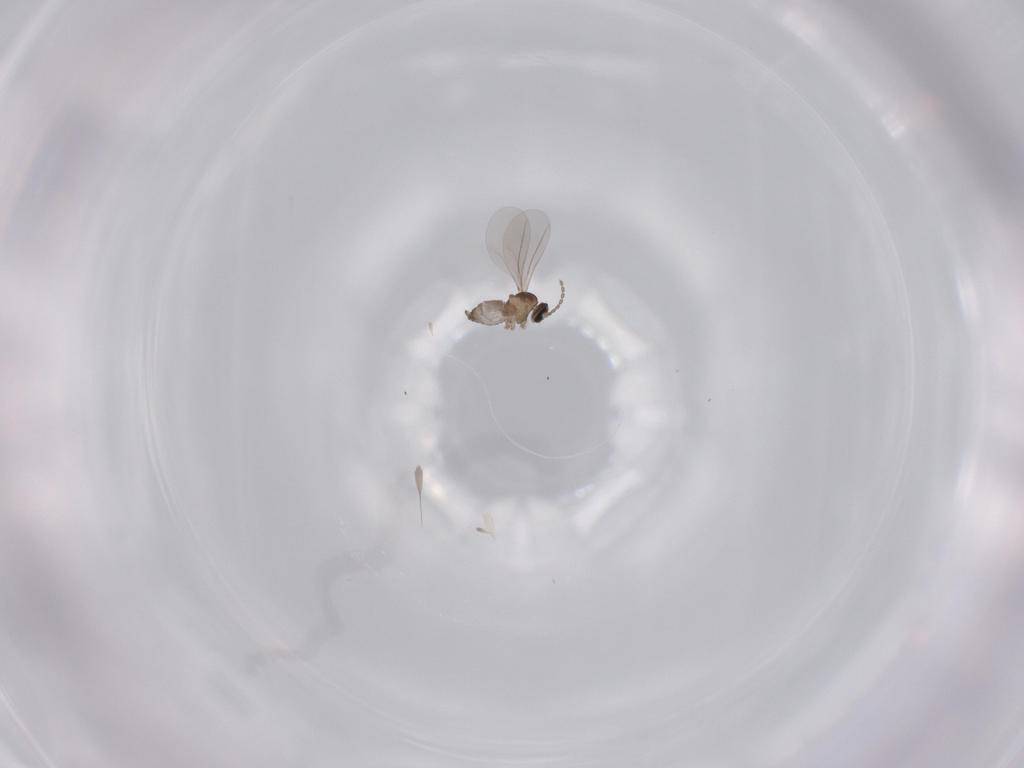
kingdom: Animalia
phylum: Arthropoda
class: Insecta
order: Diptera
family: Cecidomyiidae
